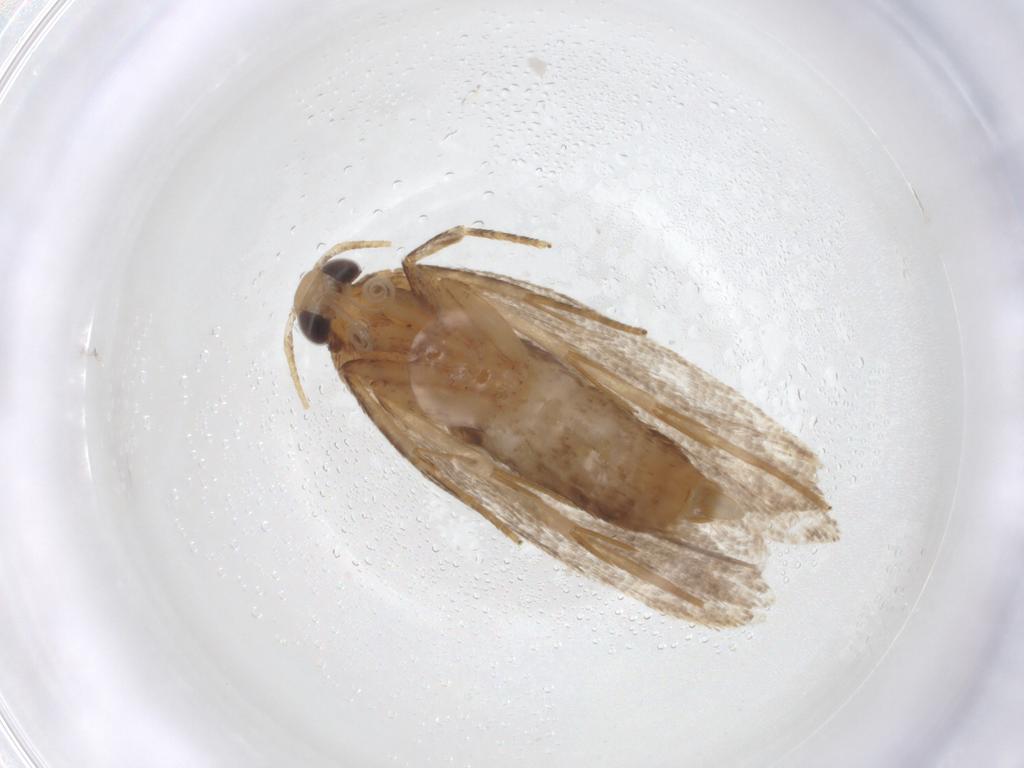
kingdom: Animalia
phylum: Arthropoda
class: Insecta
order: Lepidoptera
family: Oecophoridae
